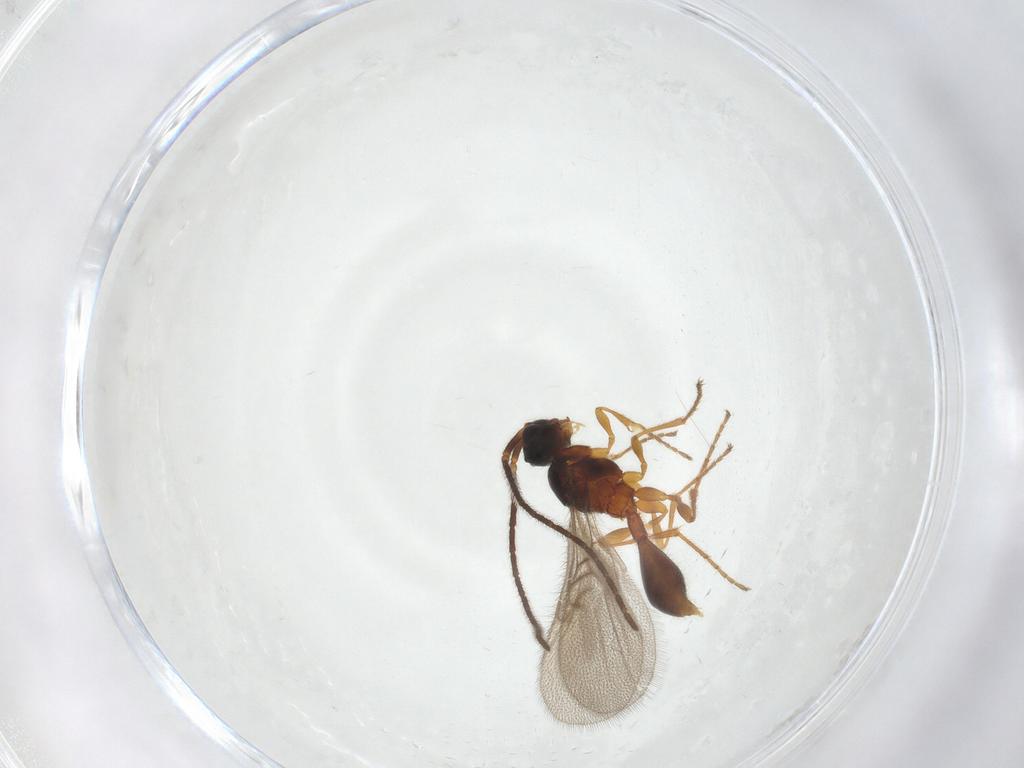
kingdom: Animalia
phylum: Arthropoda
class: Insecta
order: Hymenoptera
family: Diapriidae
